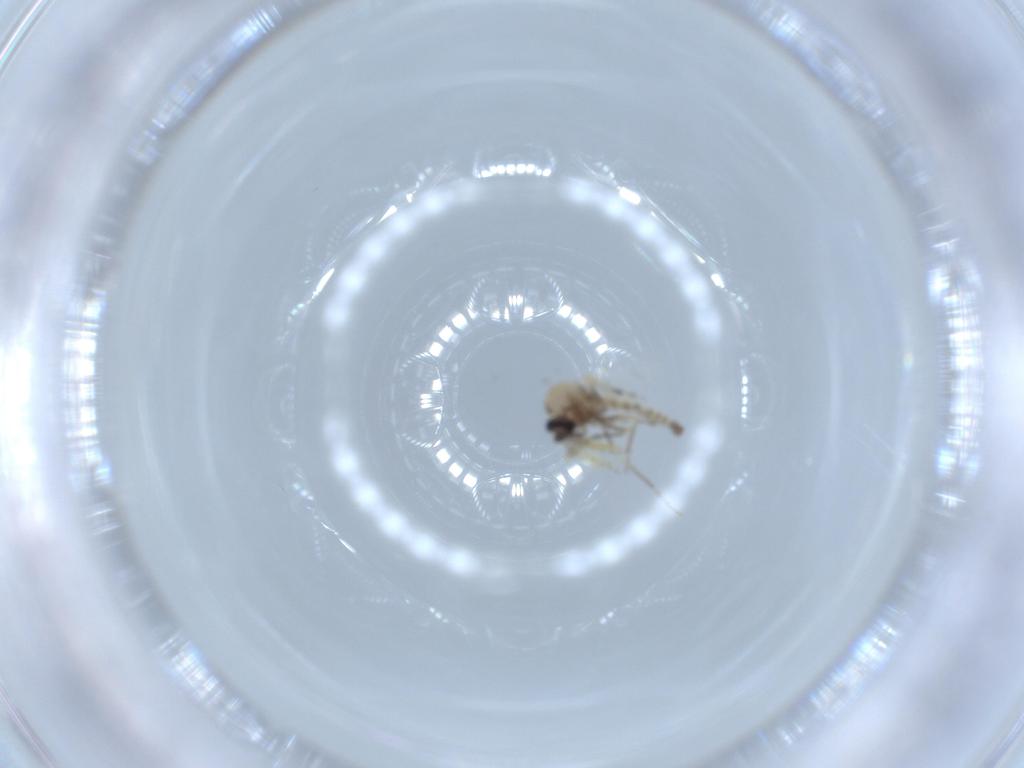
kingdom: Animalia
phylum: Arthropoda
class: Insecta
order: Diptera
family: Ceratopogonidae
